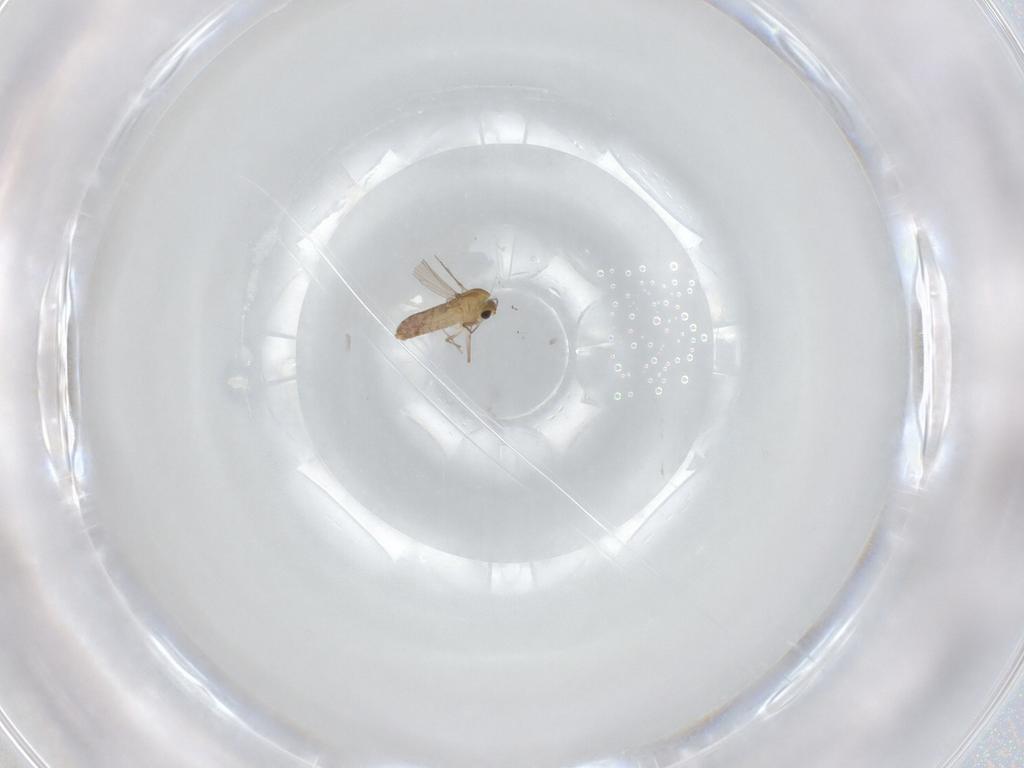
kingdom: Animalia
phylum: Arthropoda
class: Insecta
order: Diptera
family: Chironomidae
